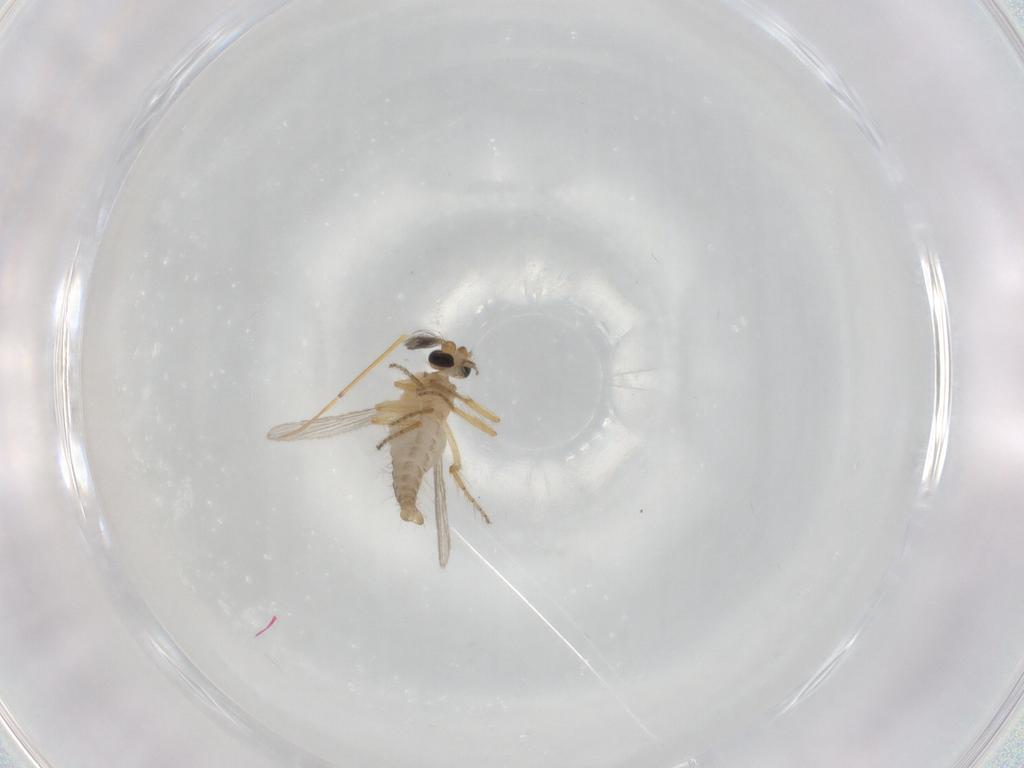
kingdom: Animalia
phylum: Arthropoda
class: Insecta
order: Diptera
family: Ceratopogonidae
